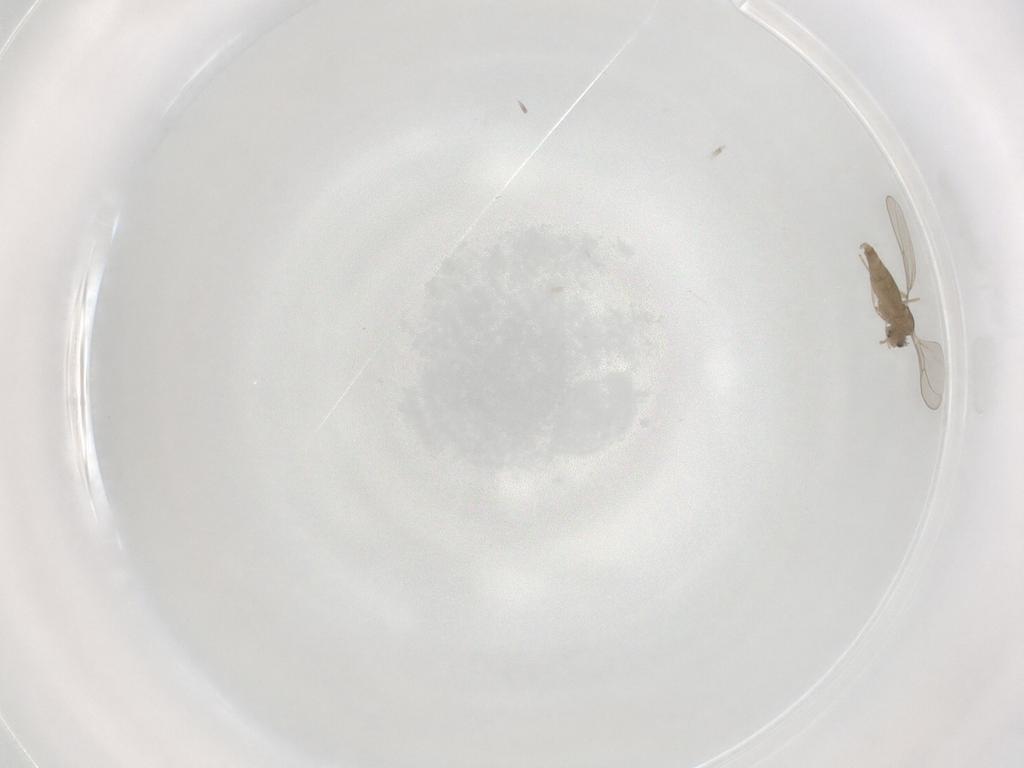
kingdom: Animalia
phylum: Arthropoda
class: Insecta
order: Diptera
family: Cecidomyiidae
